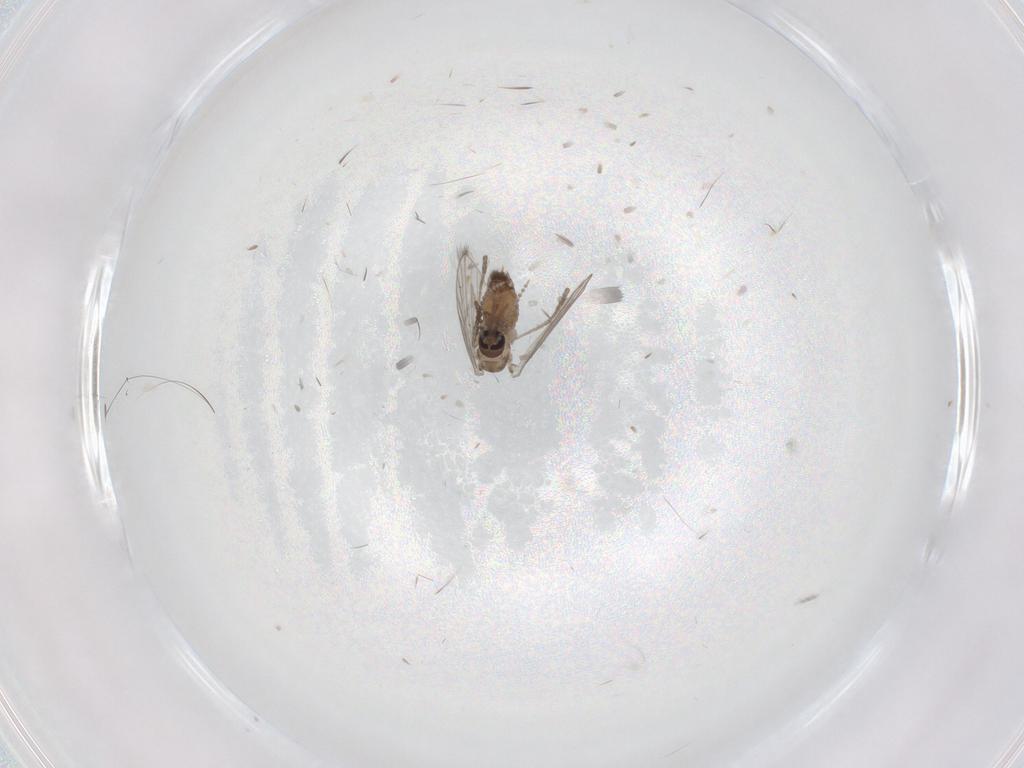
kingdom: Animalia
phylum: Arthropoda
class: Insecta
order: Diptera
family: Psychodidae
